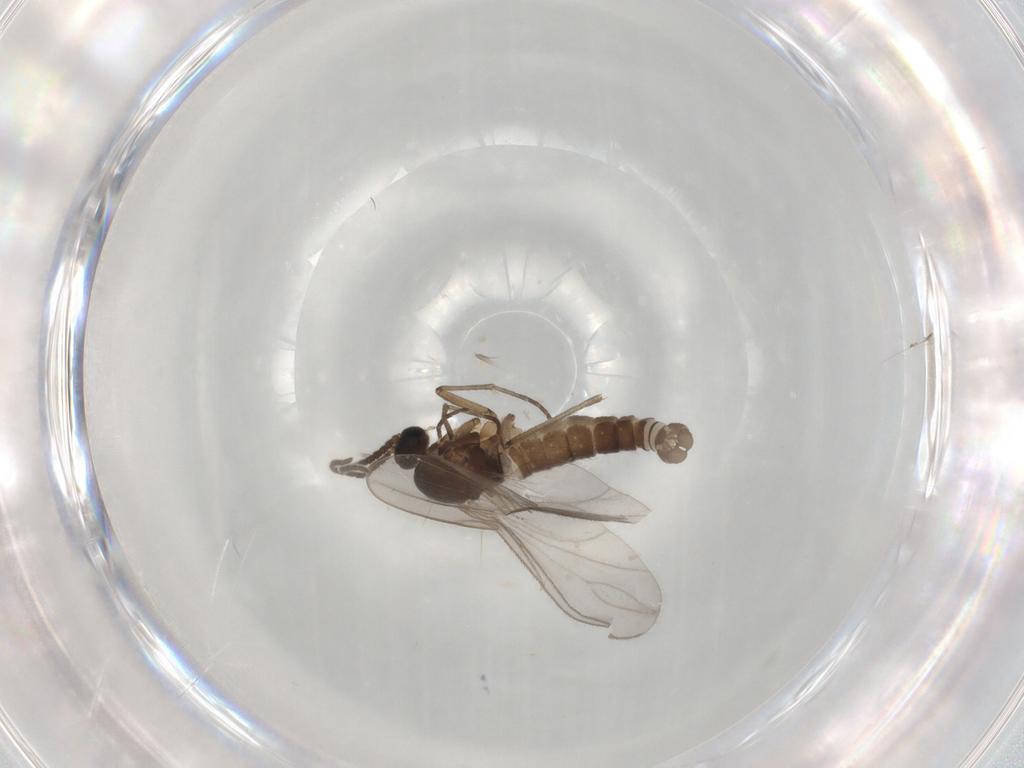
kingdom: Animalia
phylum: Arthropoda
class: Insecta
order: Diptera
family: Sciaridae
